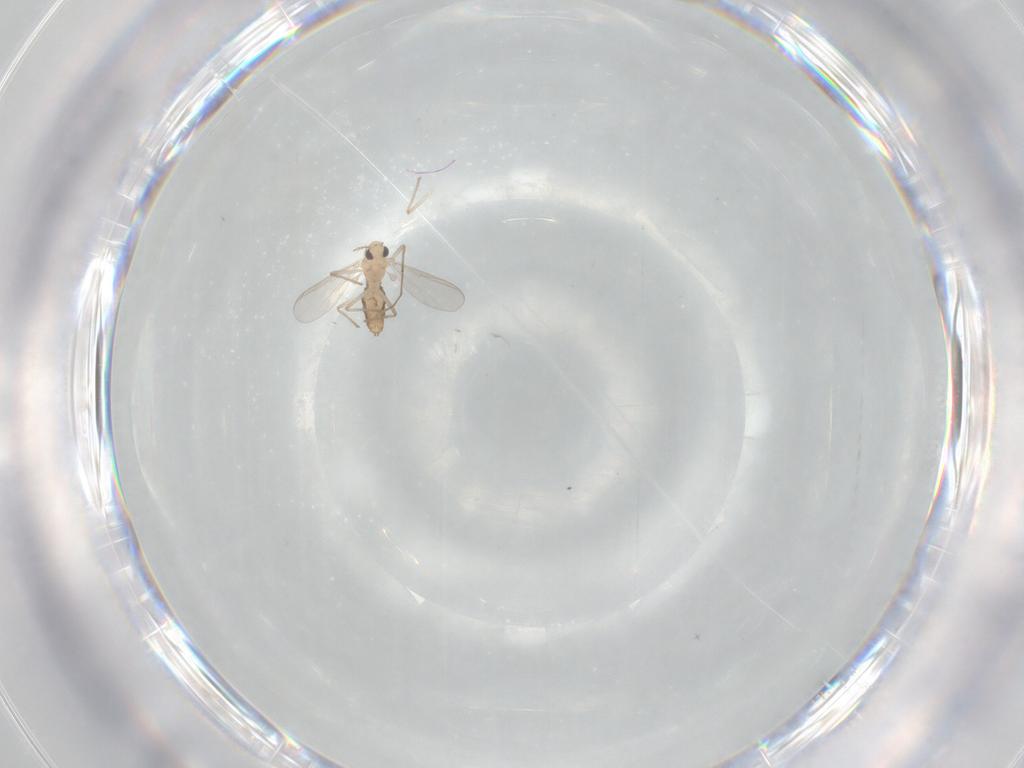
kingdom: Animalia
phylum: Arthropoda
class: Insecta
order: Diptera
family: Chironomidae
